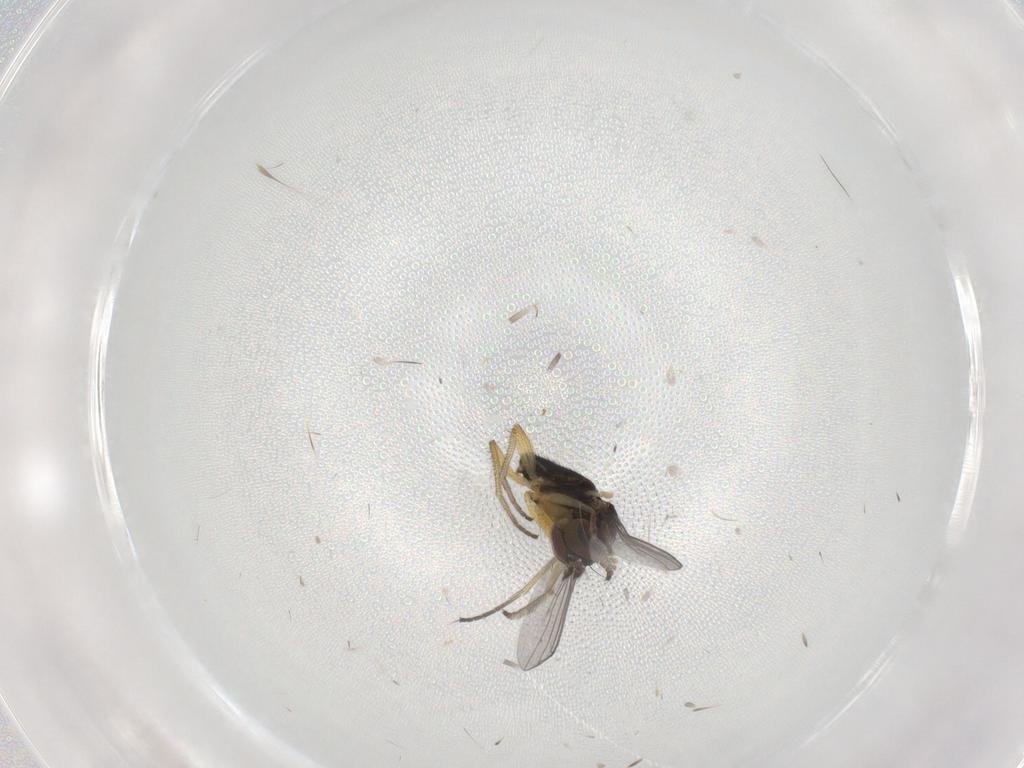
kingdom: Animalia
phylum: Arthropoda
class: Insecta
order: Diptera
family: Dolichopodidae
